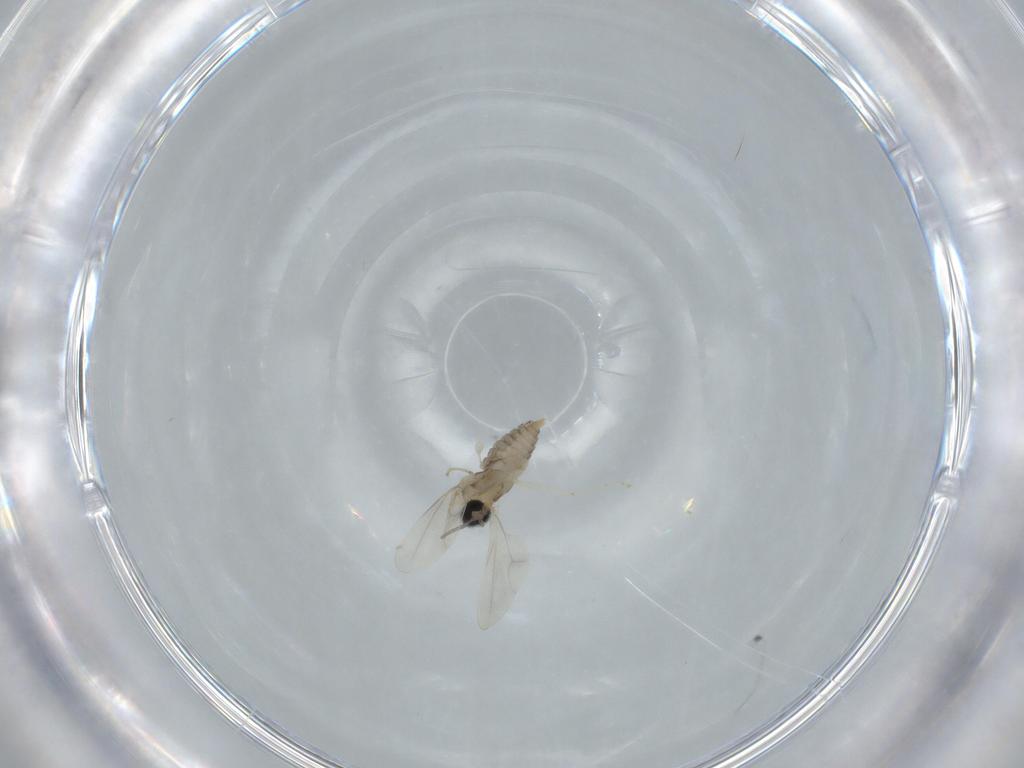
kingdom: Animalia
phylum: Arthropoda
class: Insecta
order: Diptera
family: Cecidomyiidae
